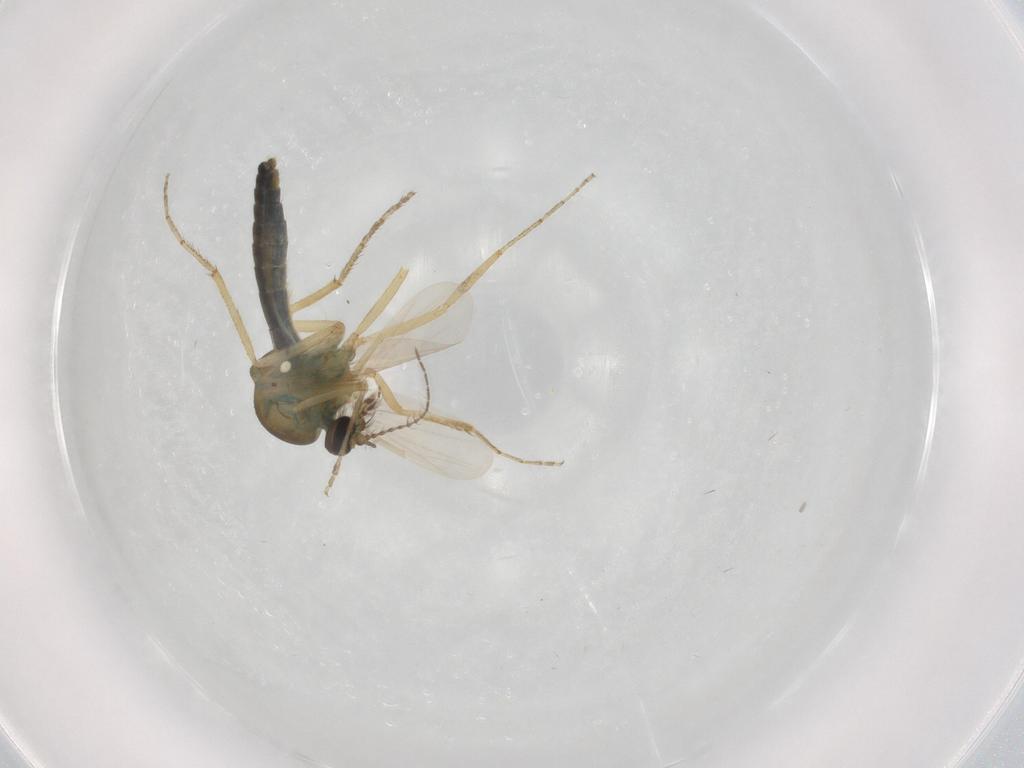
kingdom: Animalia
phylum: Arthropoda
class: Insecta
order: Diptera
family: Ceratopogonidae
